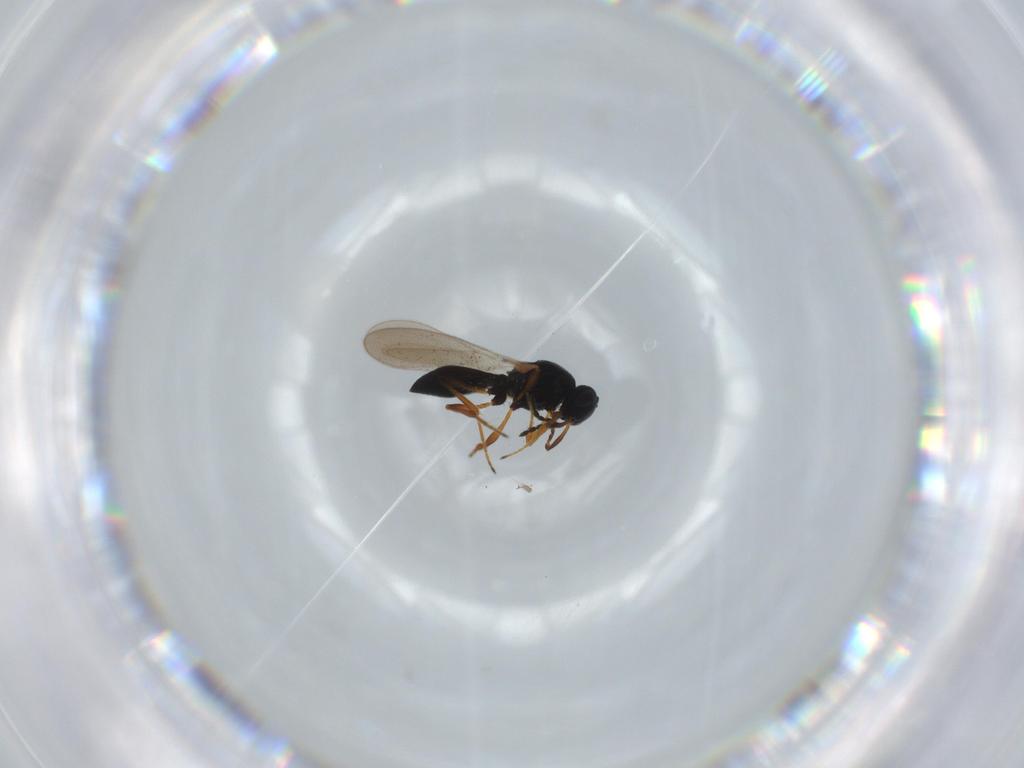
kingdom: Animalia
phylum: Arthropoda
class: Insecta
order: Hymenoptera
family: Platygastridae
